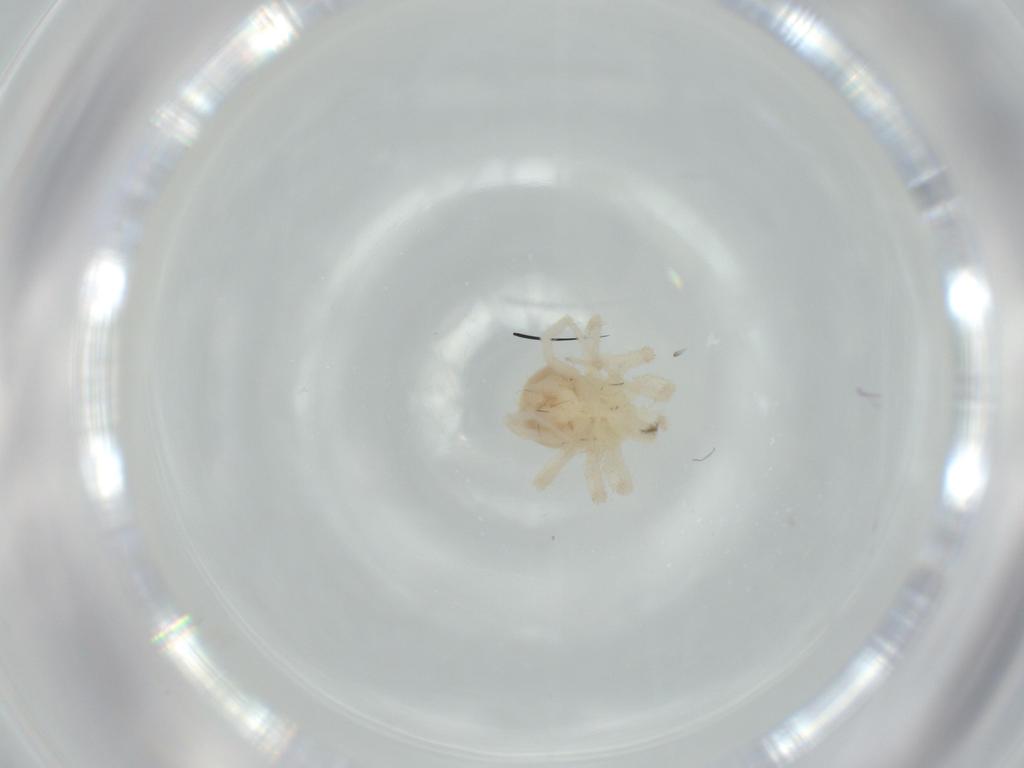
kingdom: Animalia
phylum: Arthropoda
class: Arachnida
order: Trombidiformes
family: Anystidae
